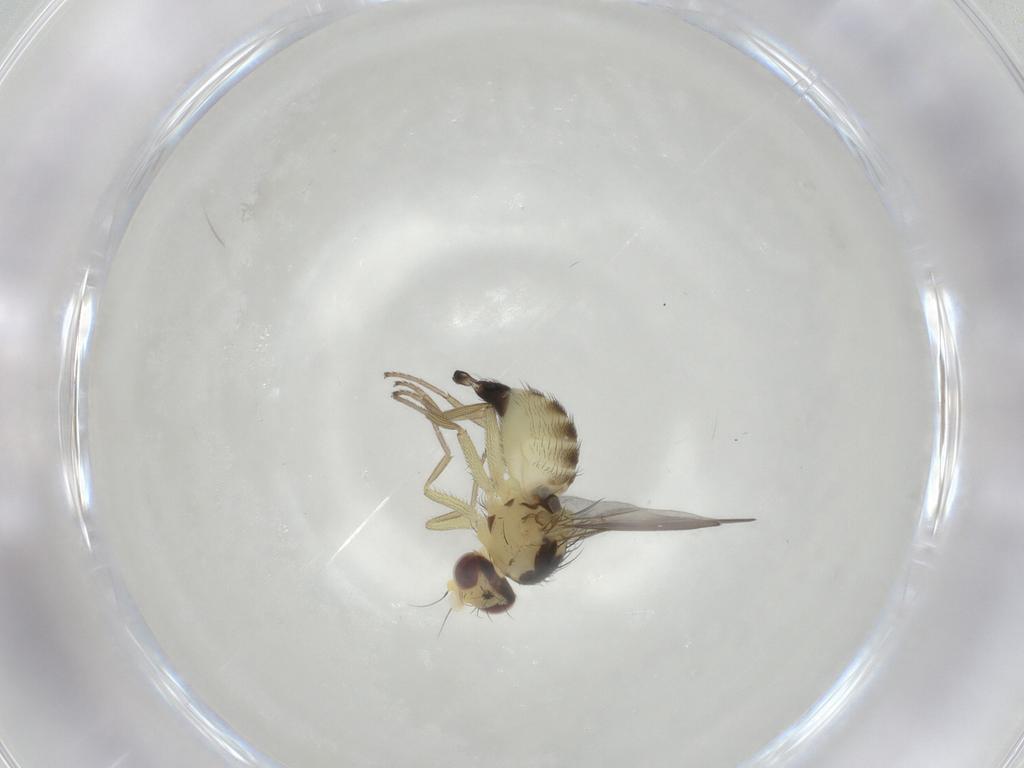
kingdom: Animalia
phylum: Arthropoda
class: Insecta
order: Diptera
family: Agromyzidae
